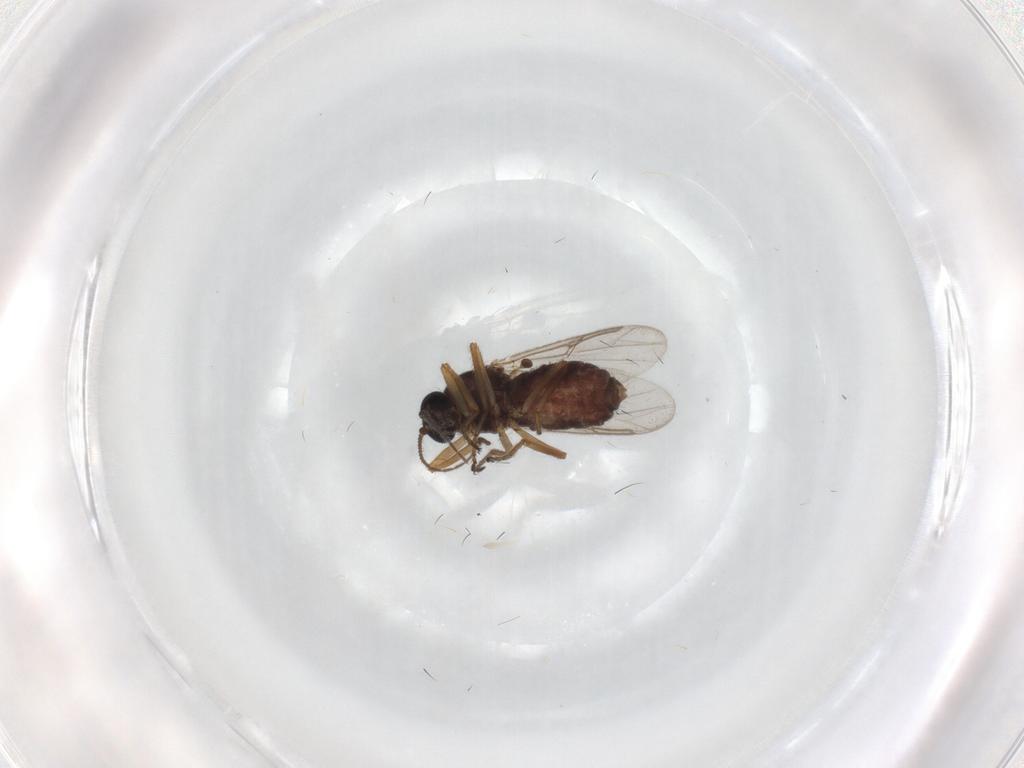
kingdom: Animalia
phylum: Arthropoda
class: Insecta
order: Diptera
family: Ceratopogonidae
